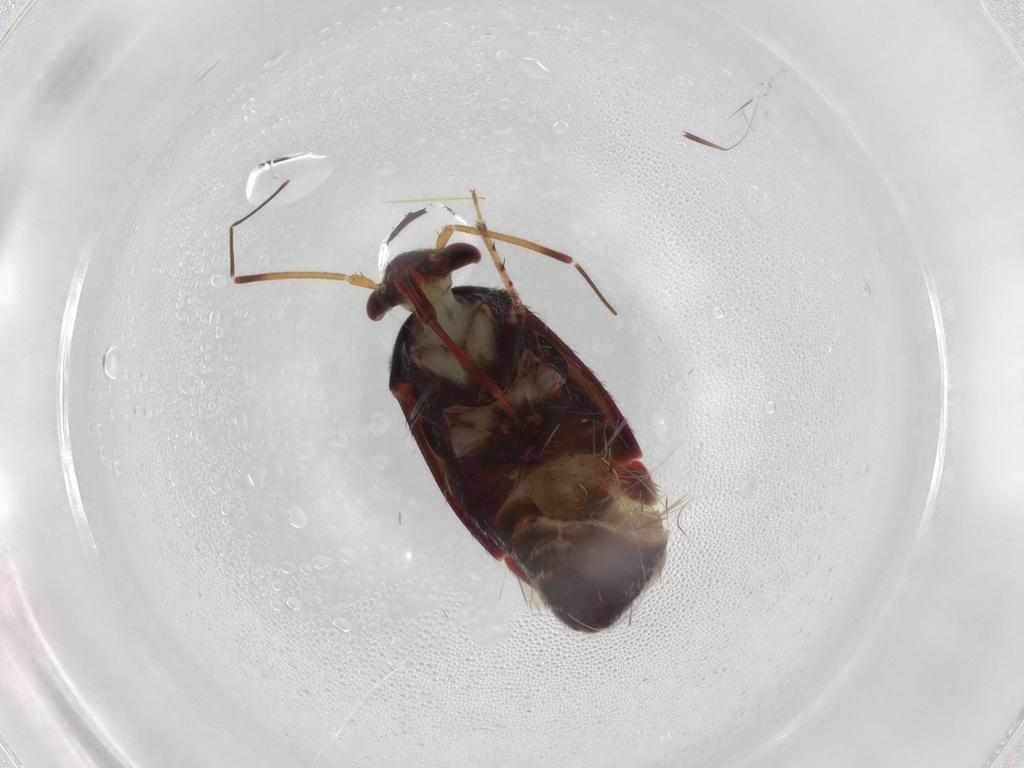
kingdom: Animalia
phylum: Arthropoda
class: Insecta
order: Hemiptera
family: Miridae
